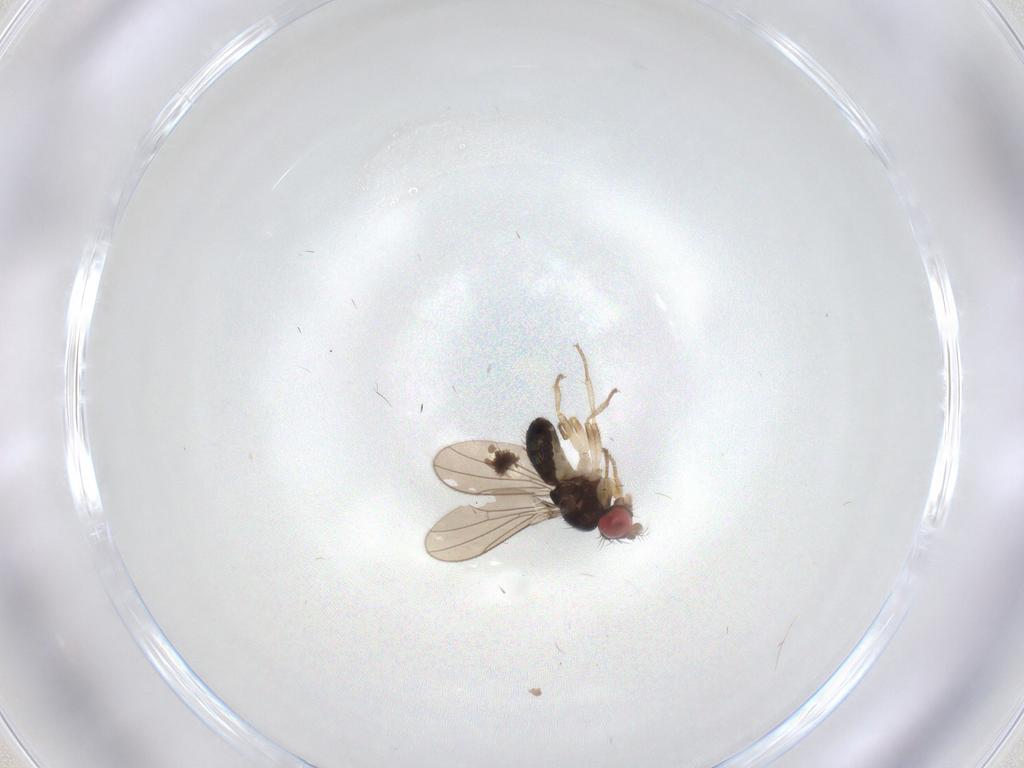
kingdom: Animalia
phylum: Arthropoda
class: Insecta
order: Diptera
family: Drosophilidae
